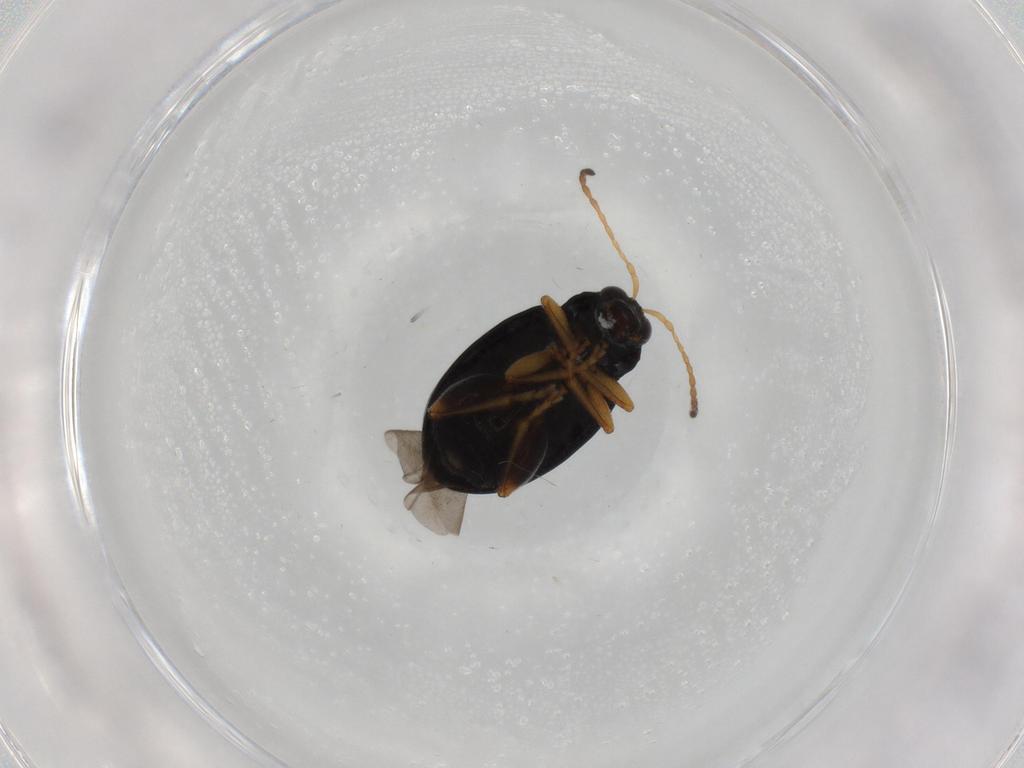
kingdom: Animalia
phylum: Arthropoda
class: Insecta
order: Coleoptera
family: Chrysomelidae
